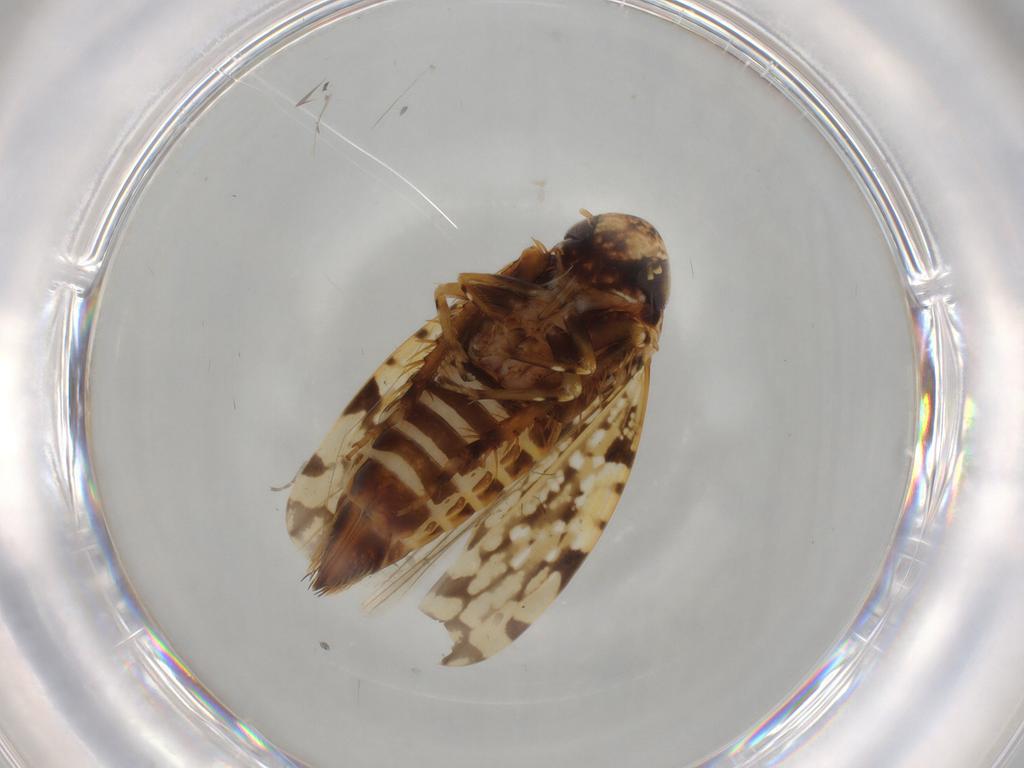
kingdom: Animalia
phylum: Arthropoda
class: Insecta
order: Hemiptera
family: Cicadellidae
